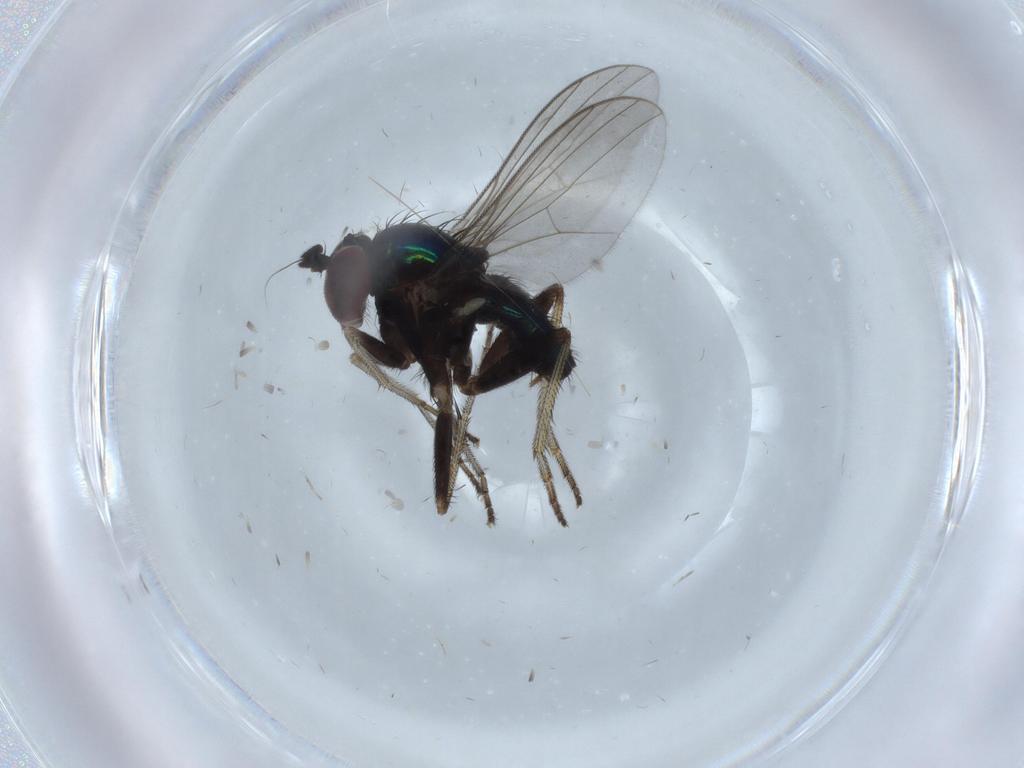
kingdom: Animalia
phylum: Arthropoda
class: Insecta
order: Diptera
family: Dolichopodidae
